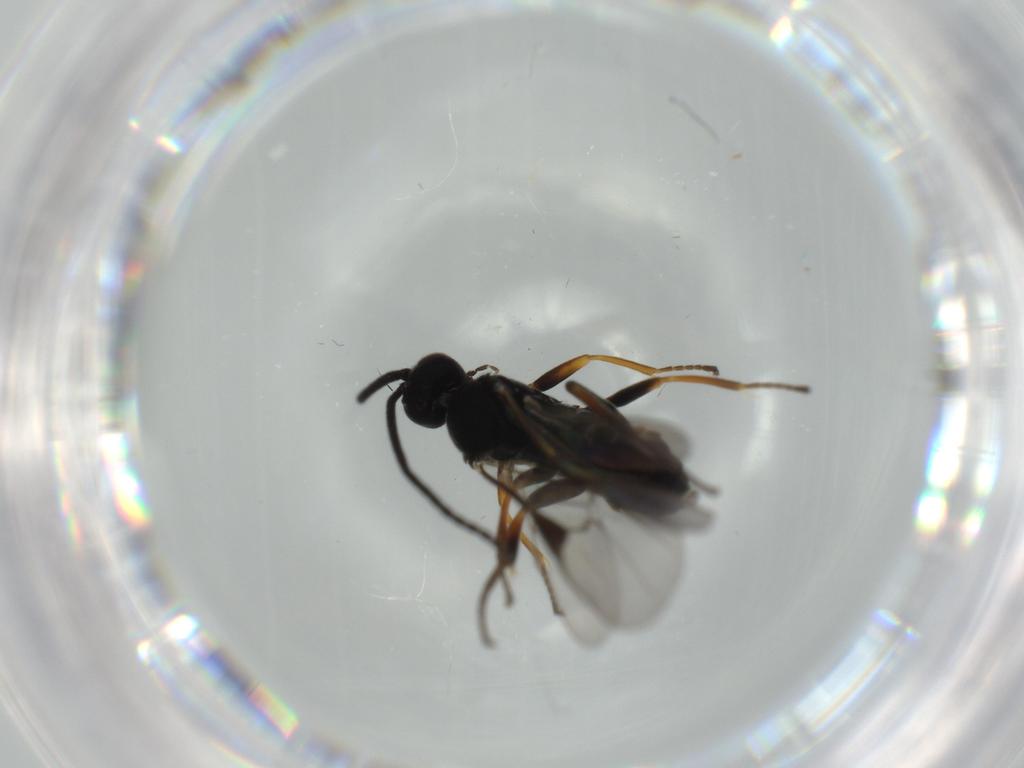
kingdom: Animalia
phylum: Arthropoda
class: Insecta
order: Hymenoptera
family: Braconidae
